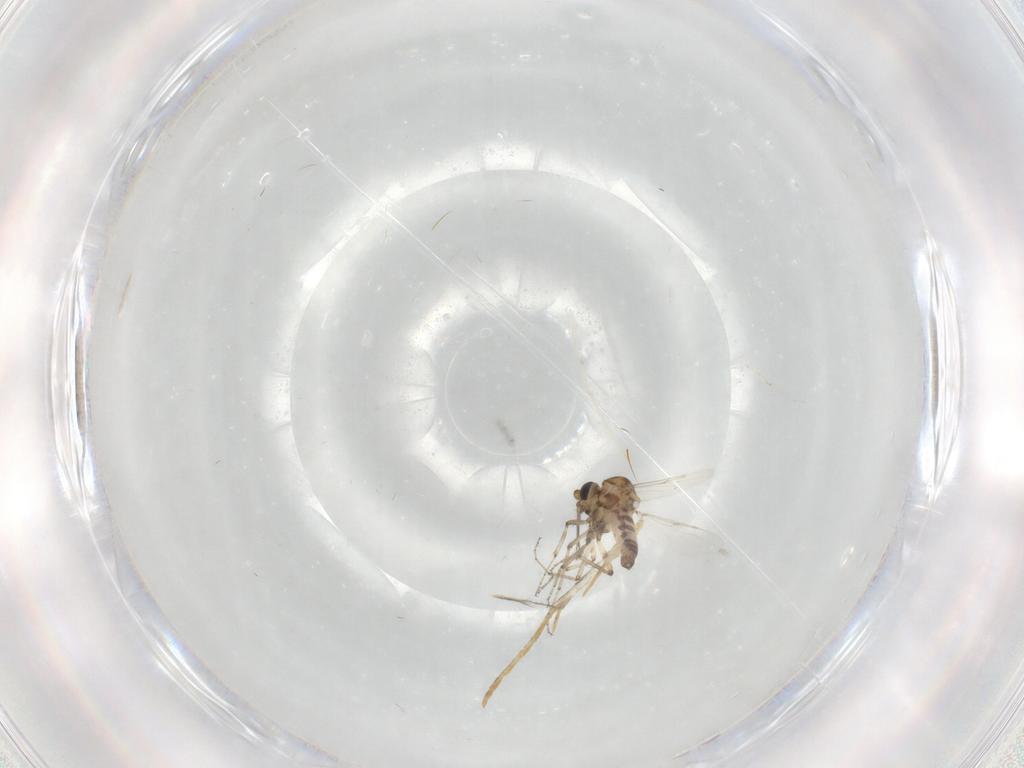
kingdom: Animalia
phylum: Arthropoda
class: Insecta
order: Diptera
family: Ceratopogonidae
